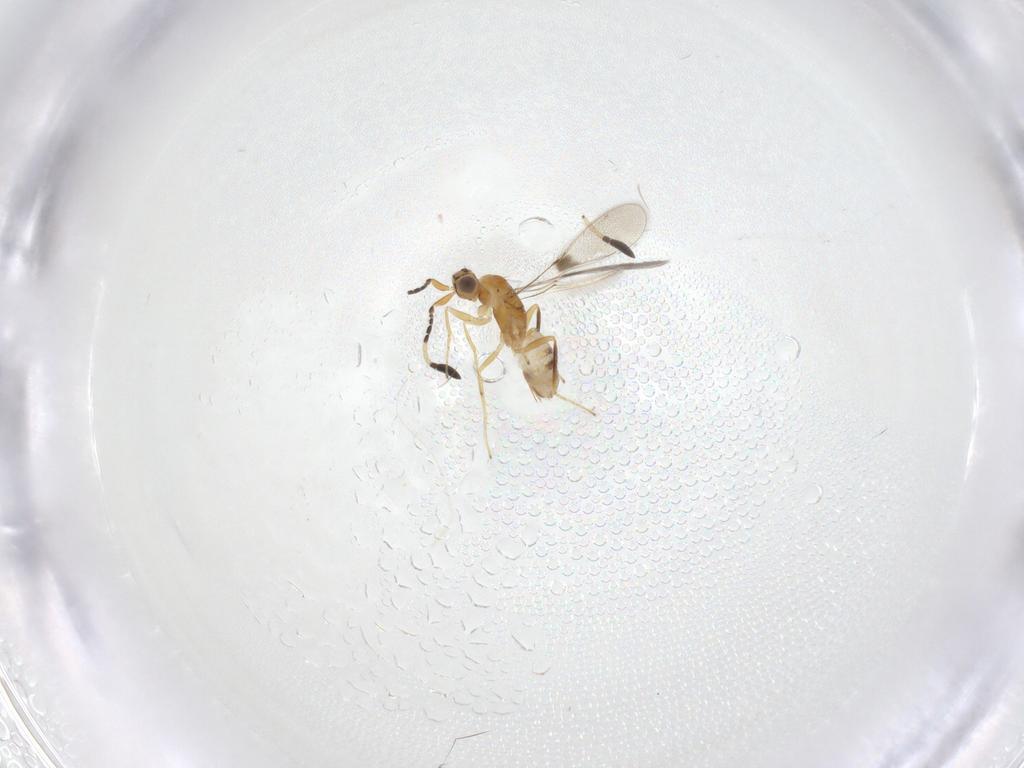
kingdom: Animalia
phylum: Arthropoda
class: Insecta
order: Hymenoptera
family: Mymaridae
